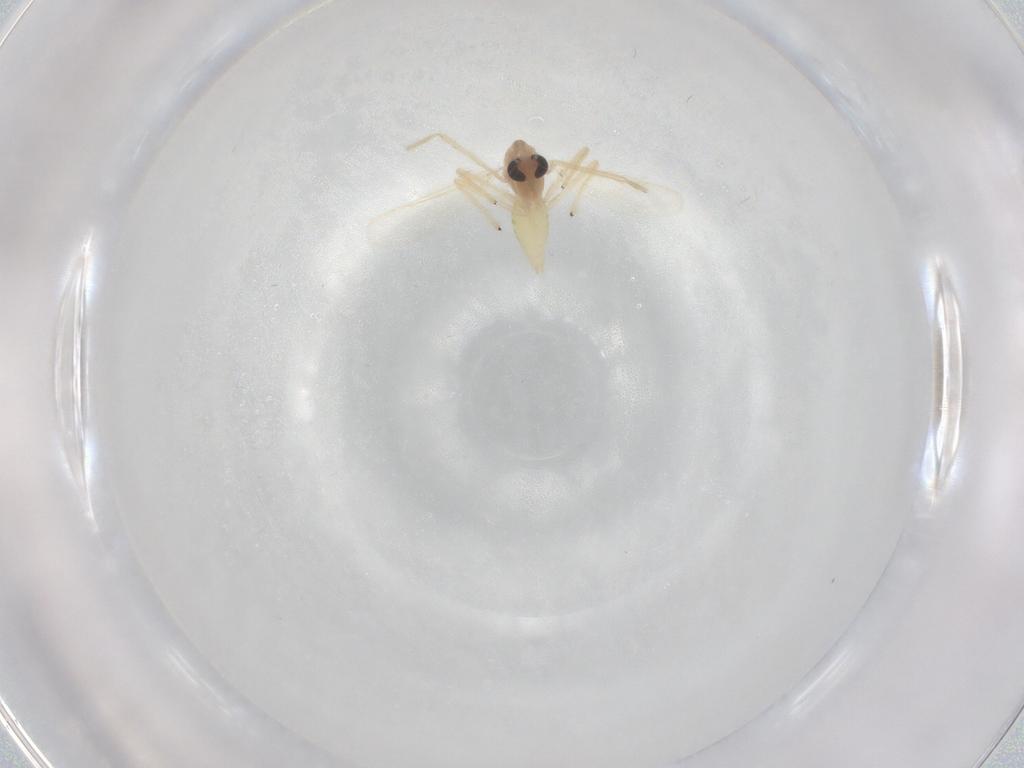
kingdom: Animalia
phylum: Arthropoda
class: Insecta
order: Diptera
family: Chironomidae
